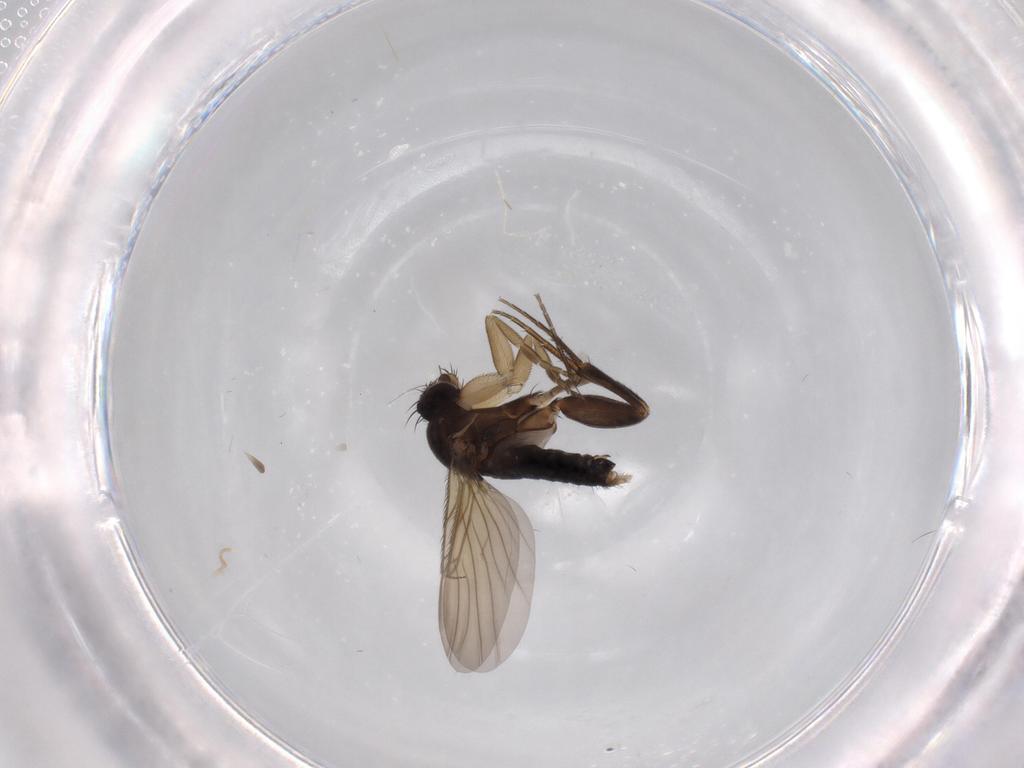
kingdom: Animalia
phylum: Arthropoda
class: Insecta
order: Diptera
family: Phoridae
